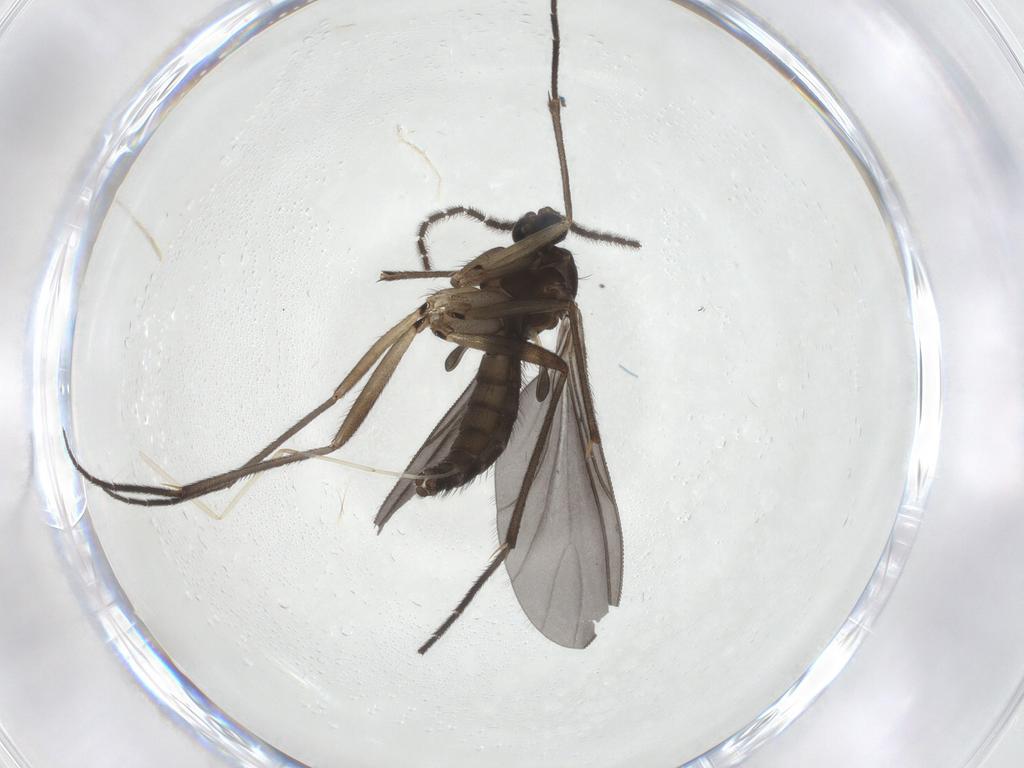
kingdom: Animalia
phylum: Arthropoda
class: Insecta
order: Diptera
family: Sciaridae
